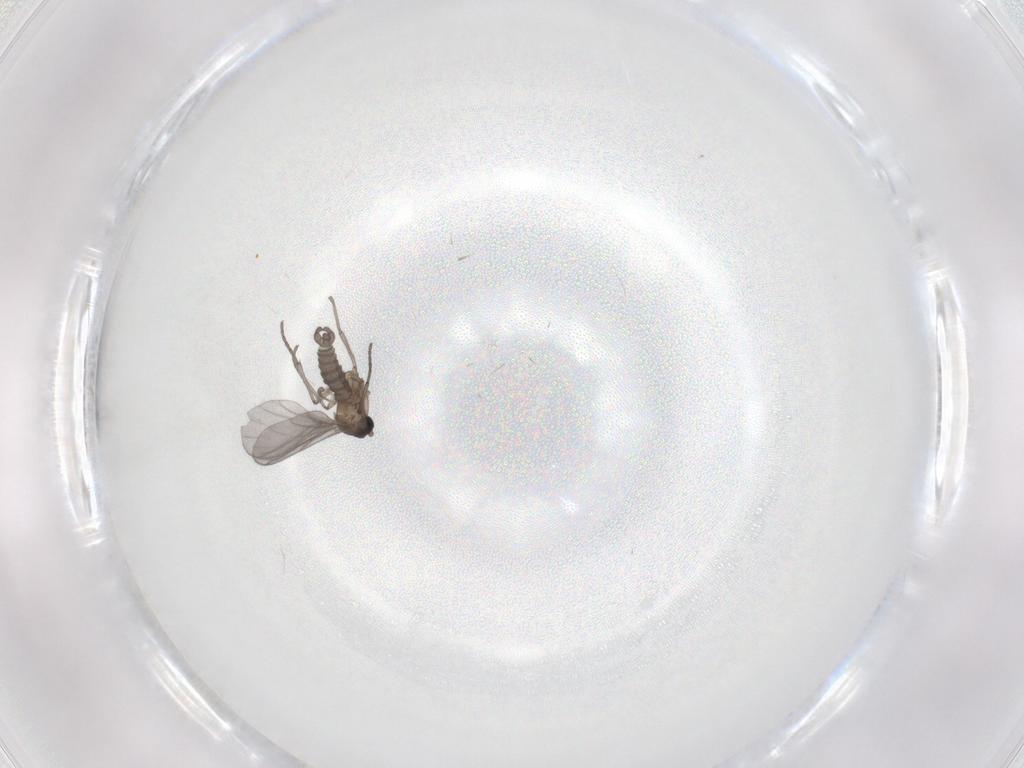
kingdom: Animalia
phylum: Arthropoda
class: Insecta
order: Diptera
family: Sciaridae
